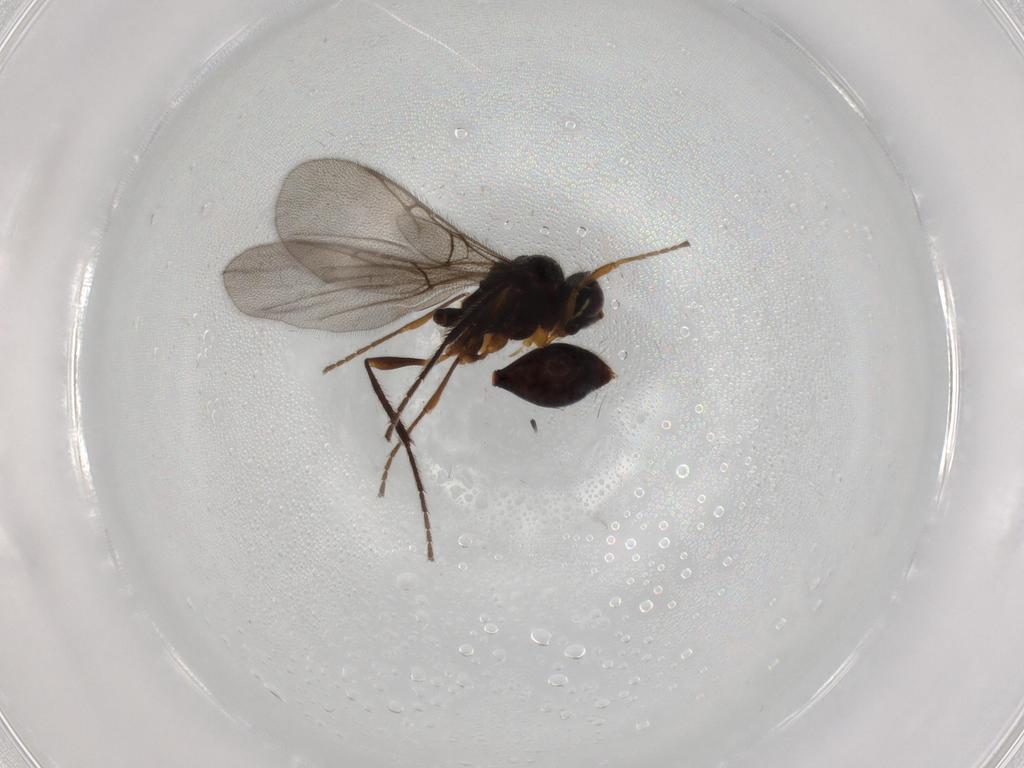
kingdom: Animalia
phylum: Arthropoda
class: Insecta
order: Hymenoptera
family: Diapriidae
